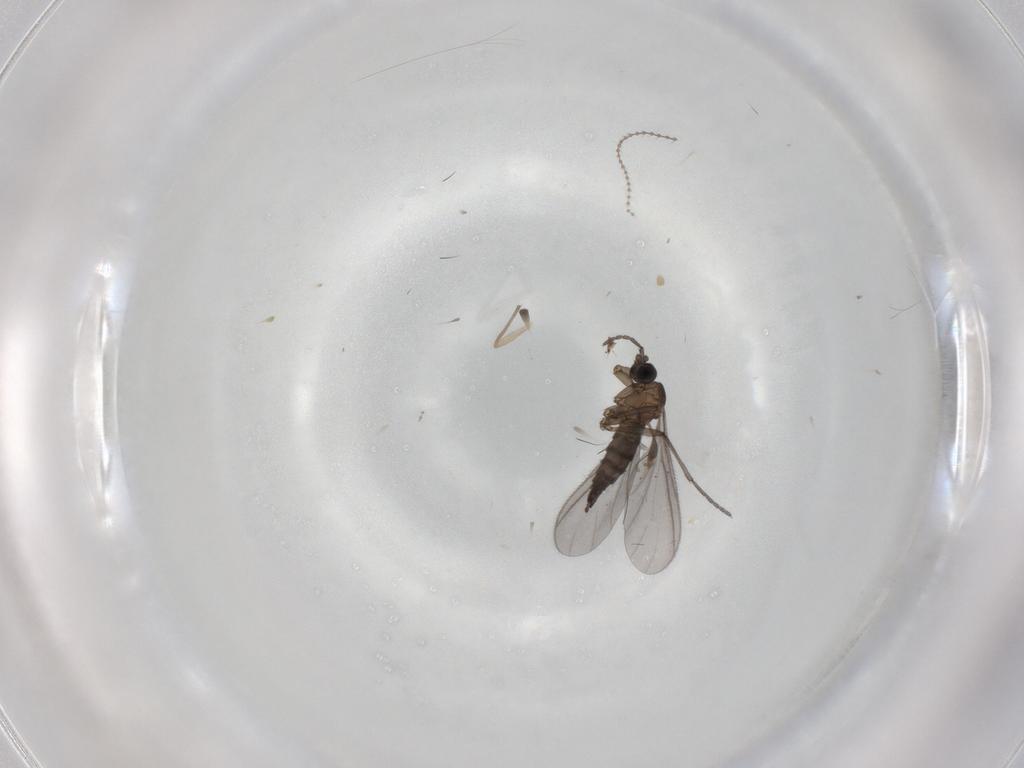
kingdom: Animalia
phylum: Arthropoda
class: Insecta
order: Diptera
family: Sciaridae
